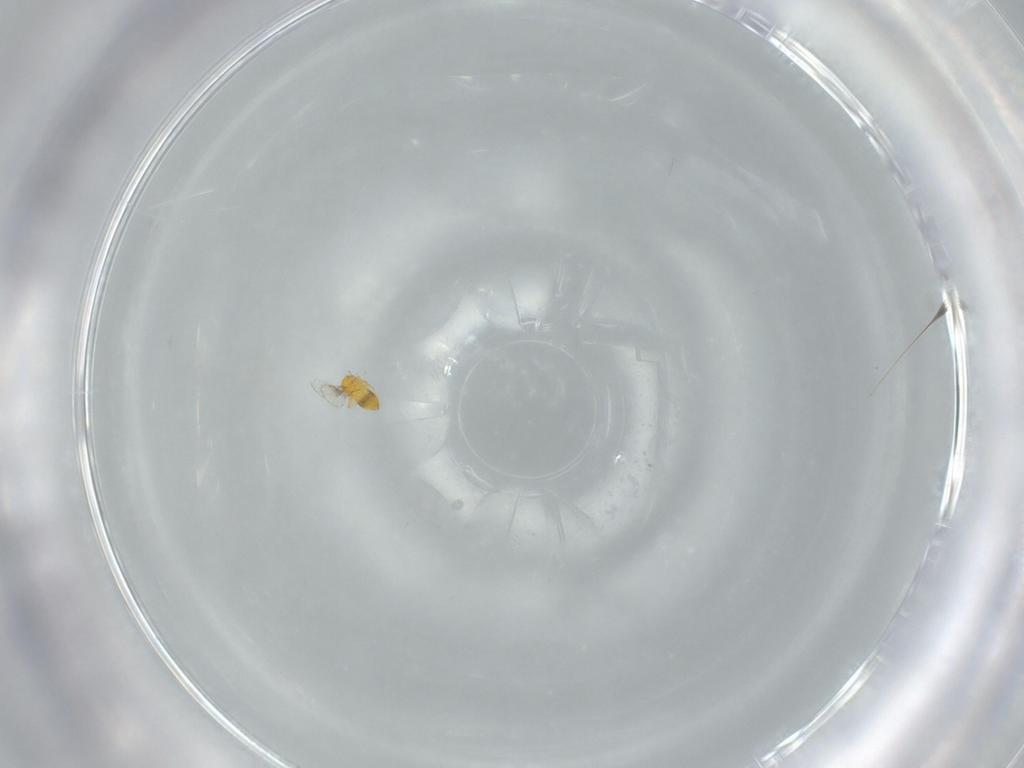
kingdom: Animalia
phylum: Arthropoda
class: Insecta
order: Hymenoptera
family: Trichogrammatidae
